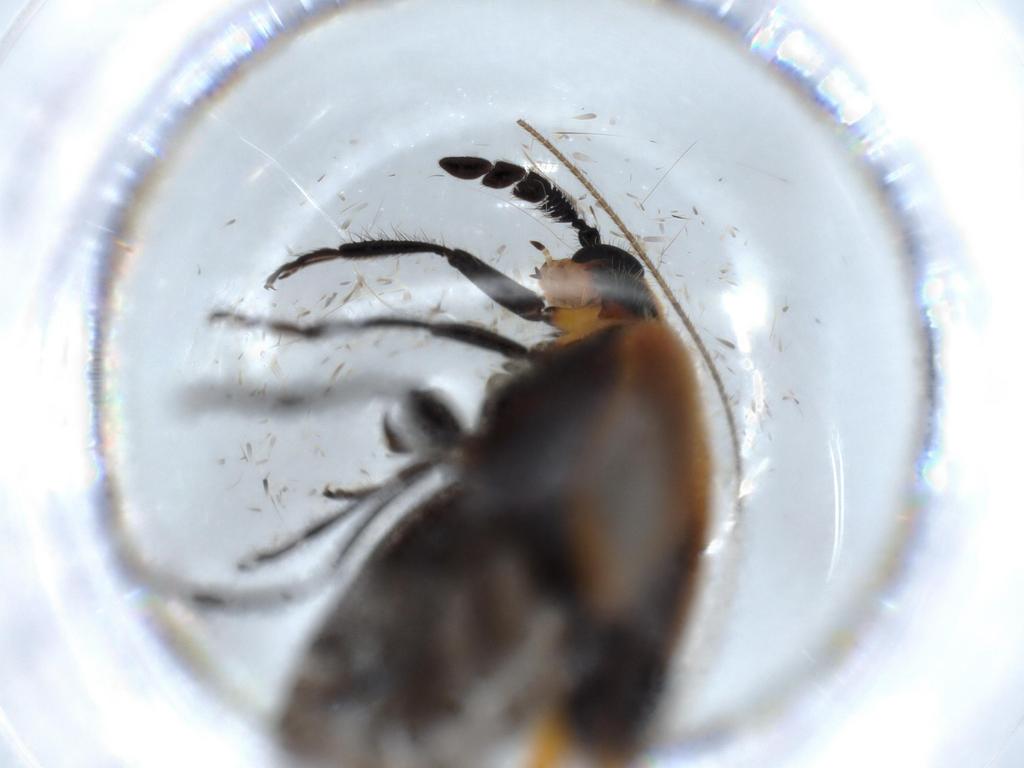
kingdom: Animalia
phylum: Arthropoda
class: Insecta
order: Coleoptera
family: Cleridae
